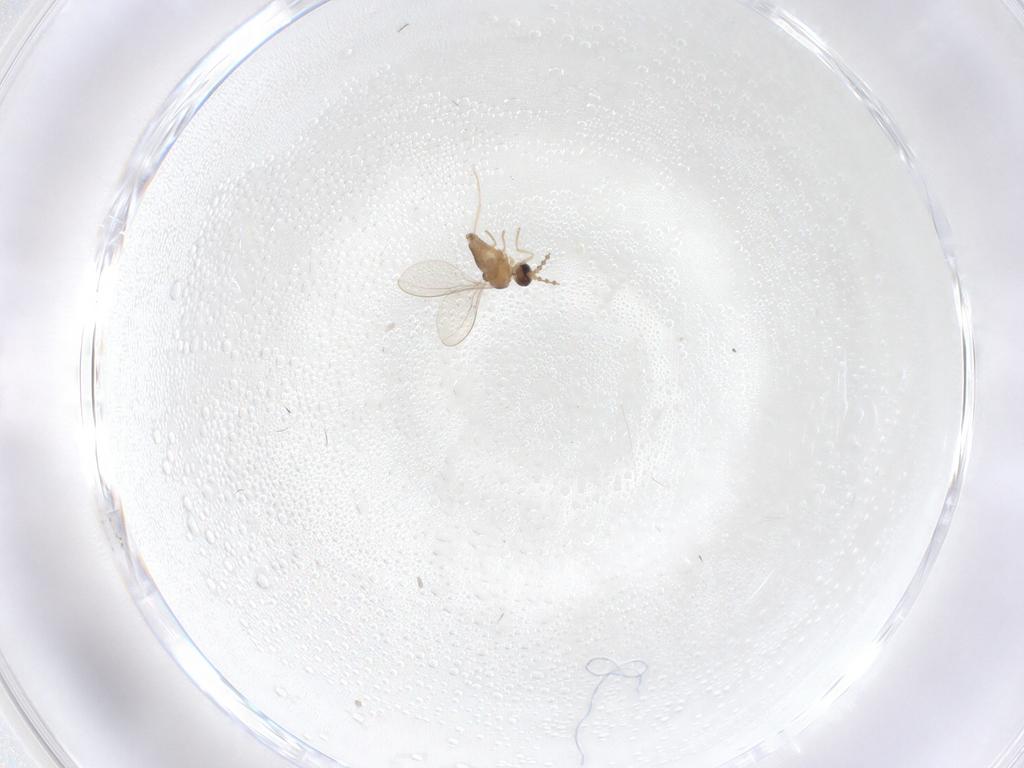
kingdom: Animalia
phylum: Arthropoda
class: Insecta
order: Diptera
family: Cecidomyiidae
